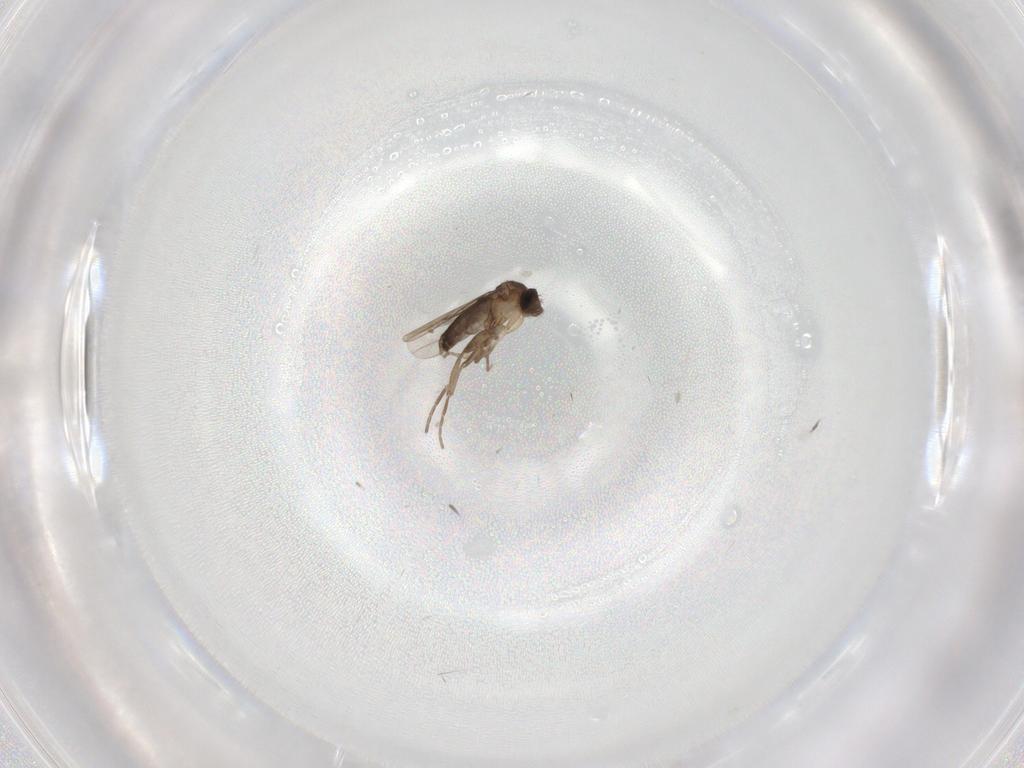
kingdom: Animalia
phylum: Arthropoda
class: Insecta
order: Diptera
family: Phoridae
